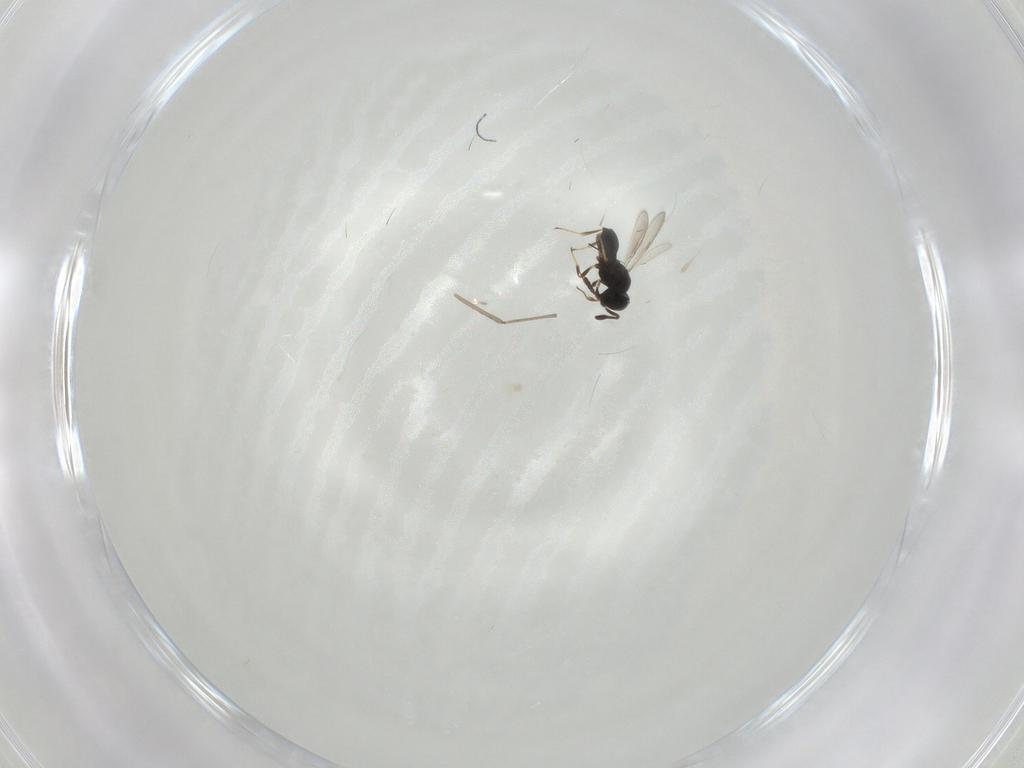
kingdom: Animalia
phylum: Arthropoda
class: Insecta
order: Hymenoptera
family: Scelionidae
